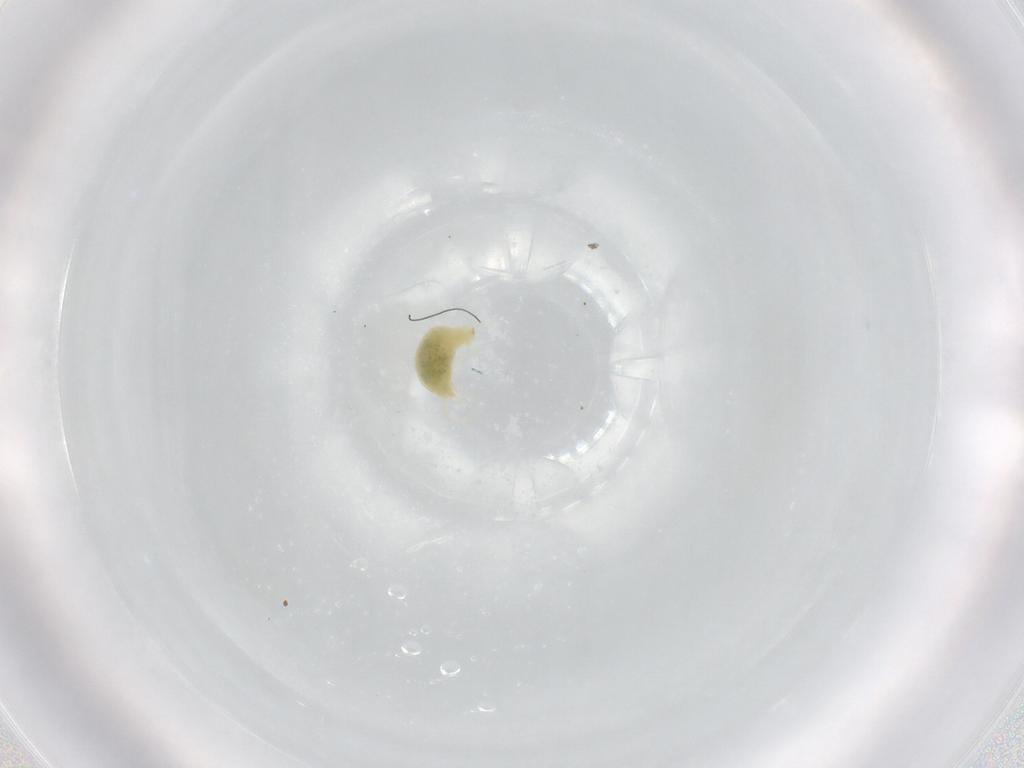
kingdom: Animalia
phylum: Arthropoda
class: Arachnida
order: Trombidiformes
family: Tetranychidae
